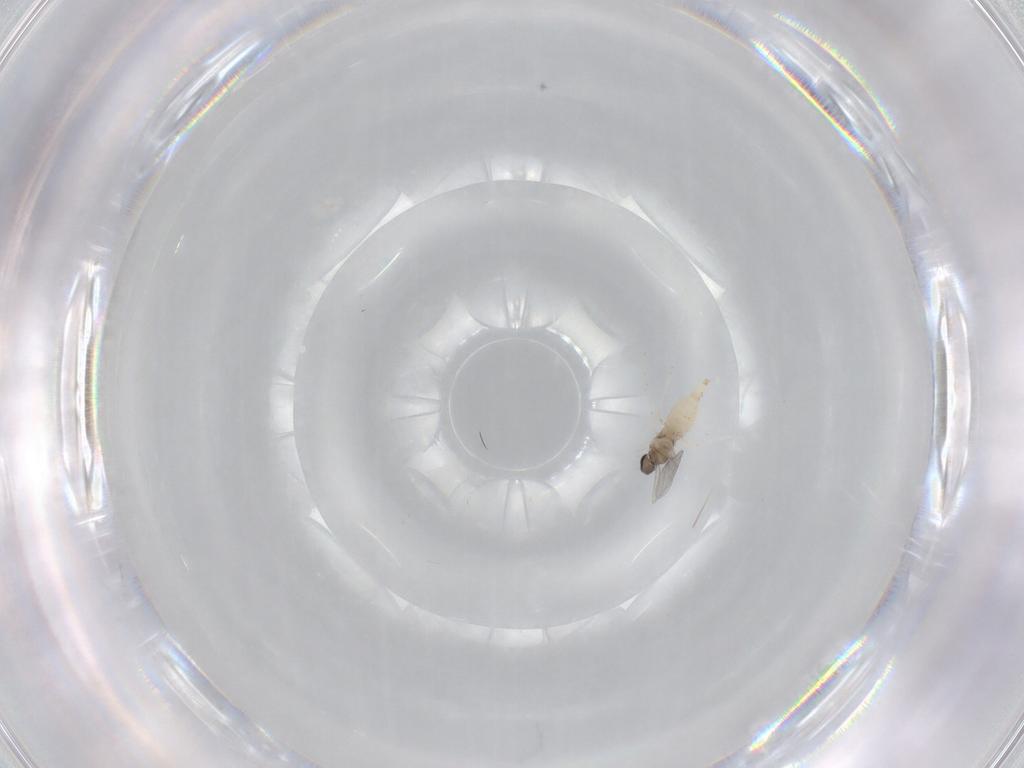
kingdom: Animalia
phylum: Arthropoda
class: Insecta
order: Diptera
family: Cecidomyiidae
